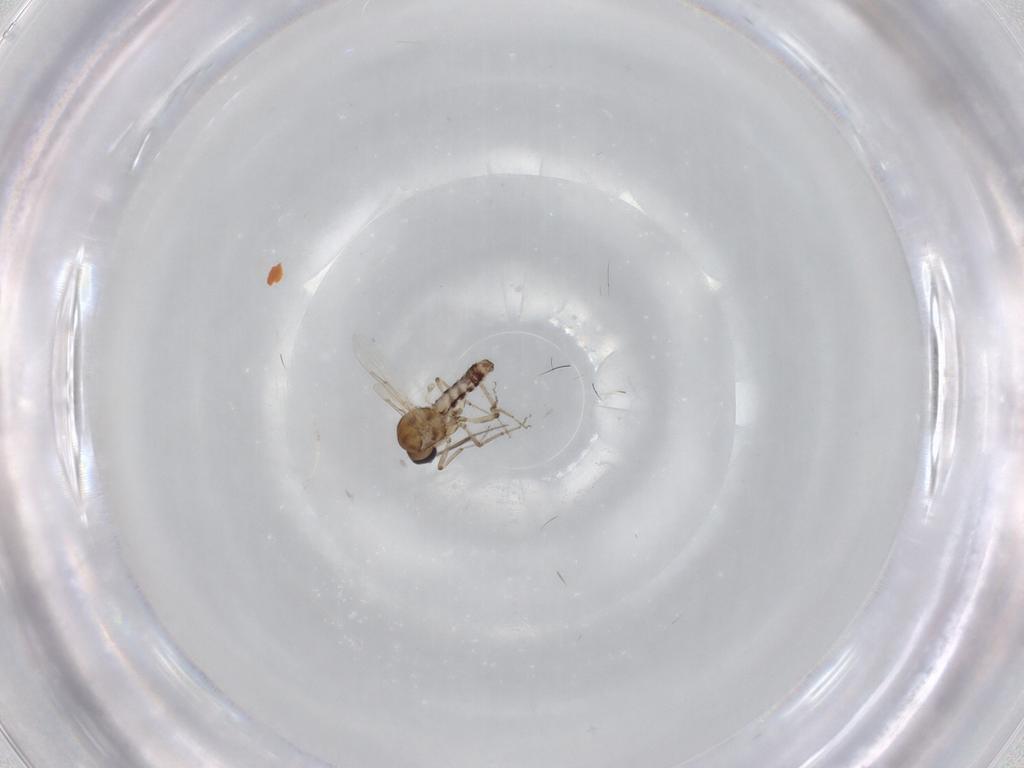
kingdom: Animalia
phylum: Arthropoda
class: Insecta
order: Diptera
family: Ceratopogonidae
